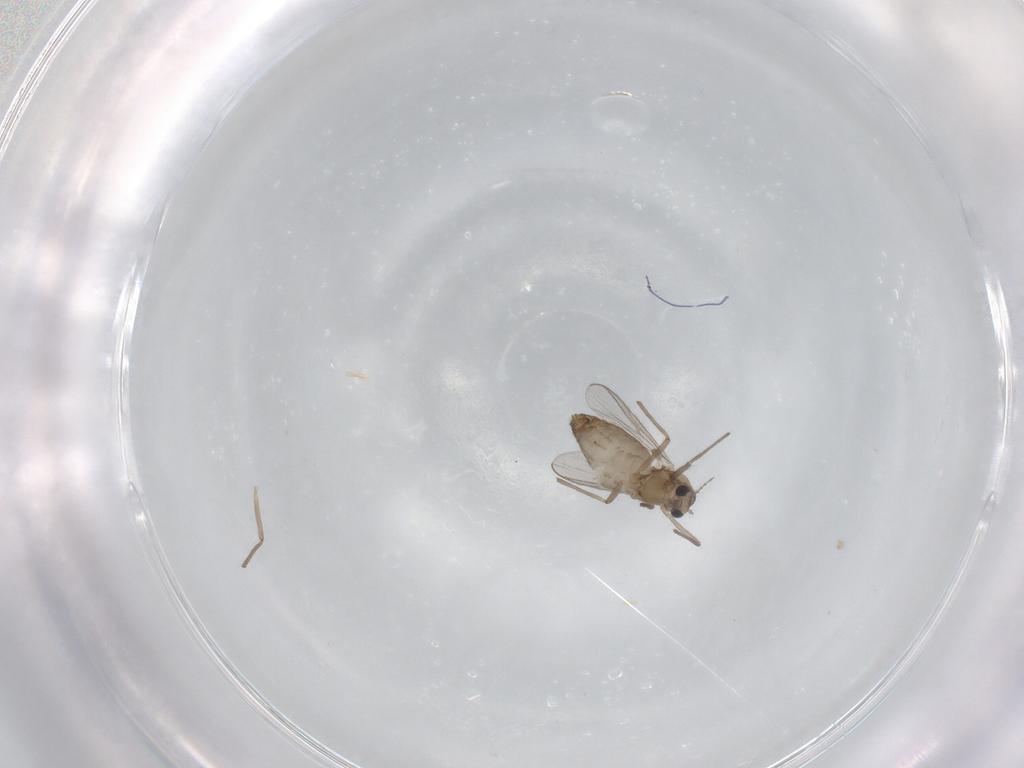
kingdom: Animalia
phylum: Arthropoda
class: Insecta
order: Diptera
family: Chironomidae
